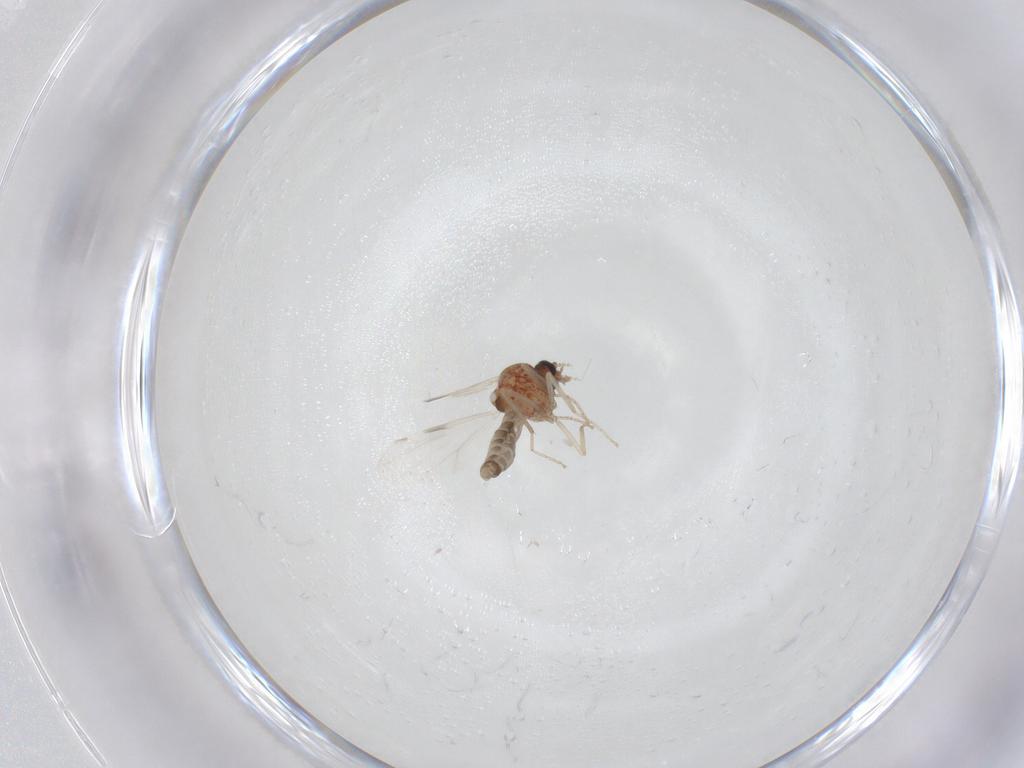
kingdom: Animalia
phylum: Arthropoda
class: Insecta
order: Diptera
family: Ceratopogonidae
